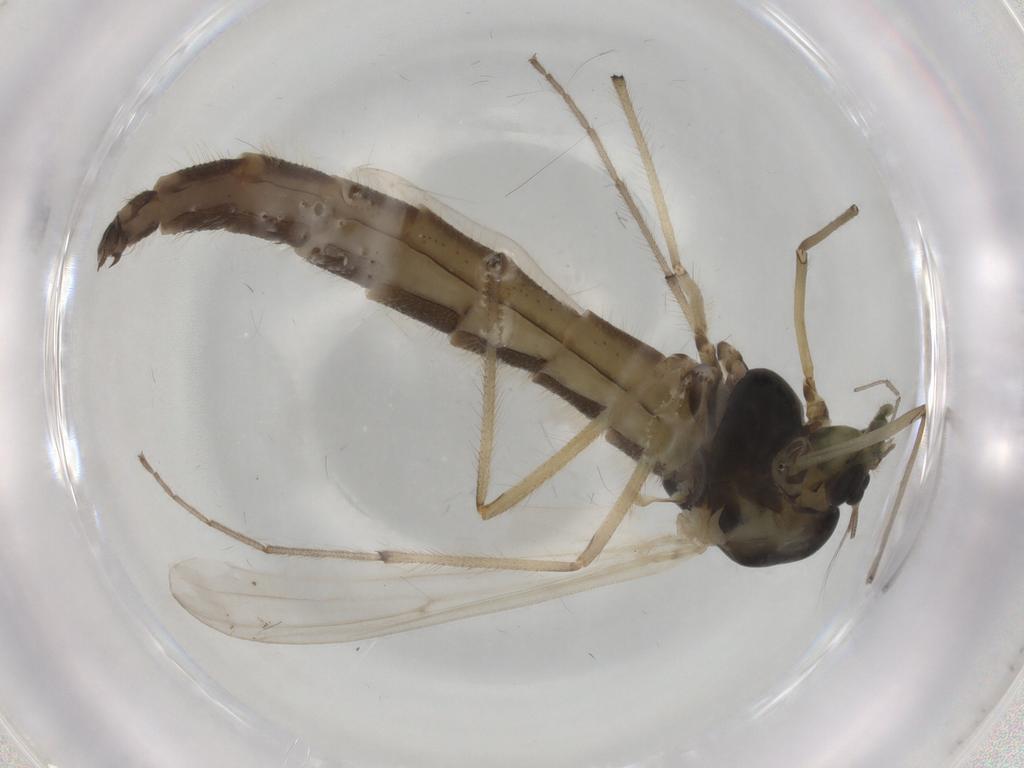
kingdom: Animalia
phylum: Arthropoda
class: Insecta
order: Diptera
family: Chironomidae
